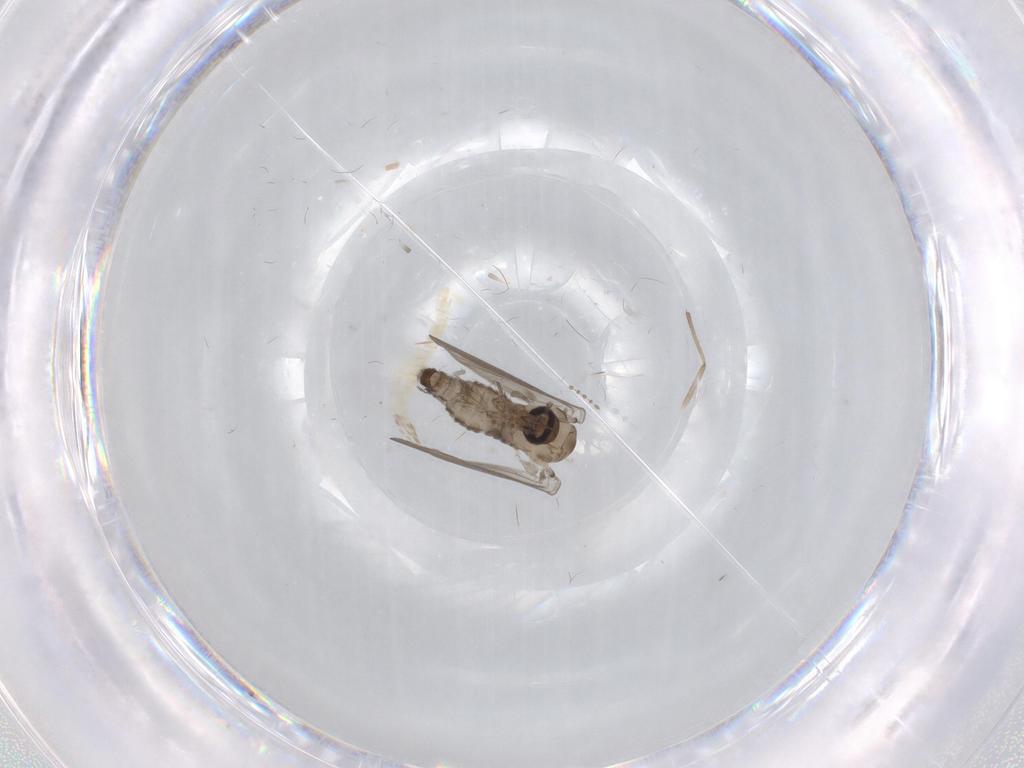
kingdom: Animalia
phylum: Arthropoda
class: Insecta
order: Diptera
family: Psychodidae
